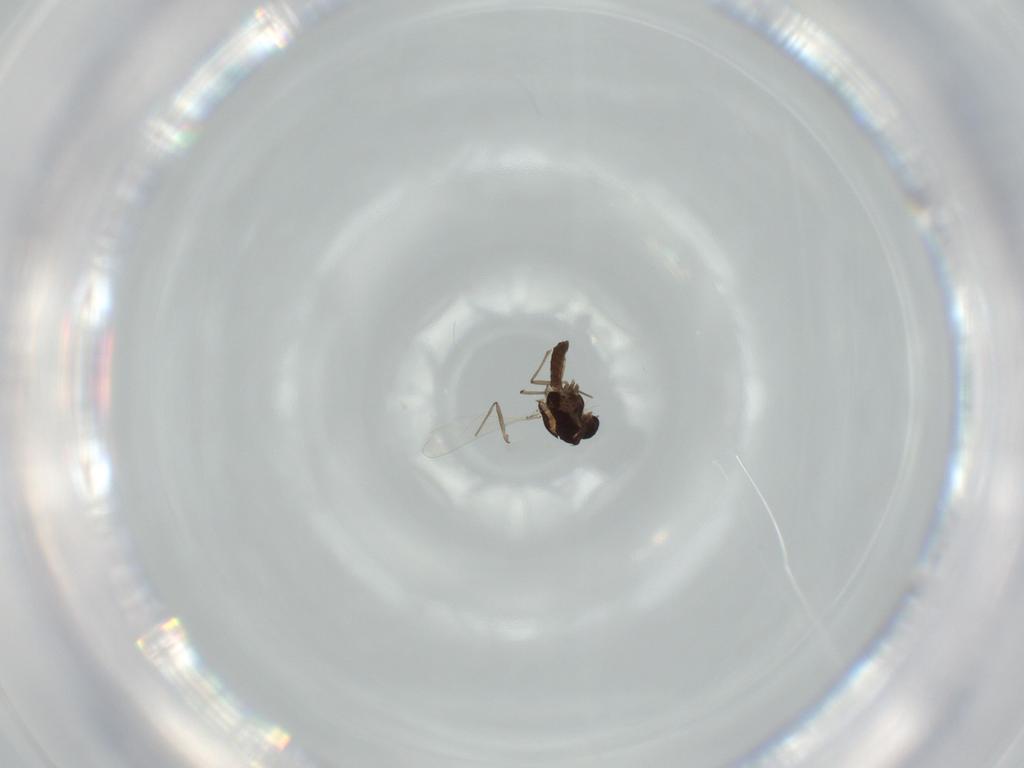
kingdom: Animalia
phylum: Arthropoda
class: Insecta
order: Diptera
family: Chironomidae
